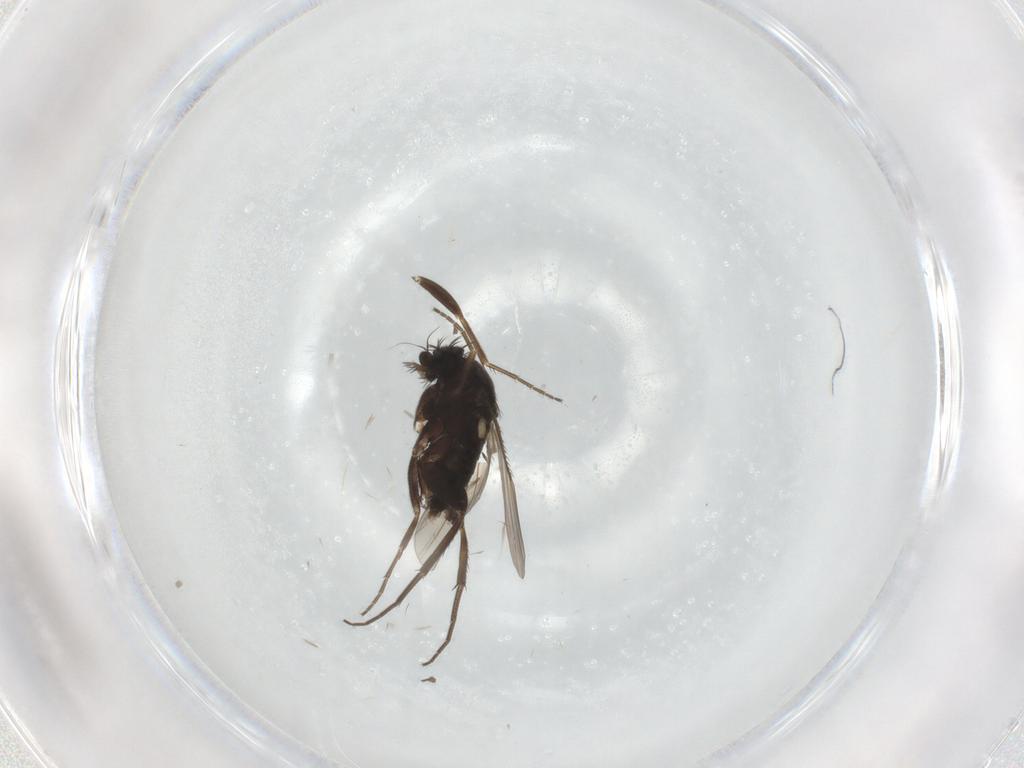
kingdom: Animalia
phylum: Arthropoda
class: Insecta
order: Diptera
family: Phoridae
